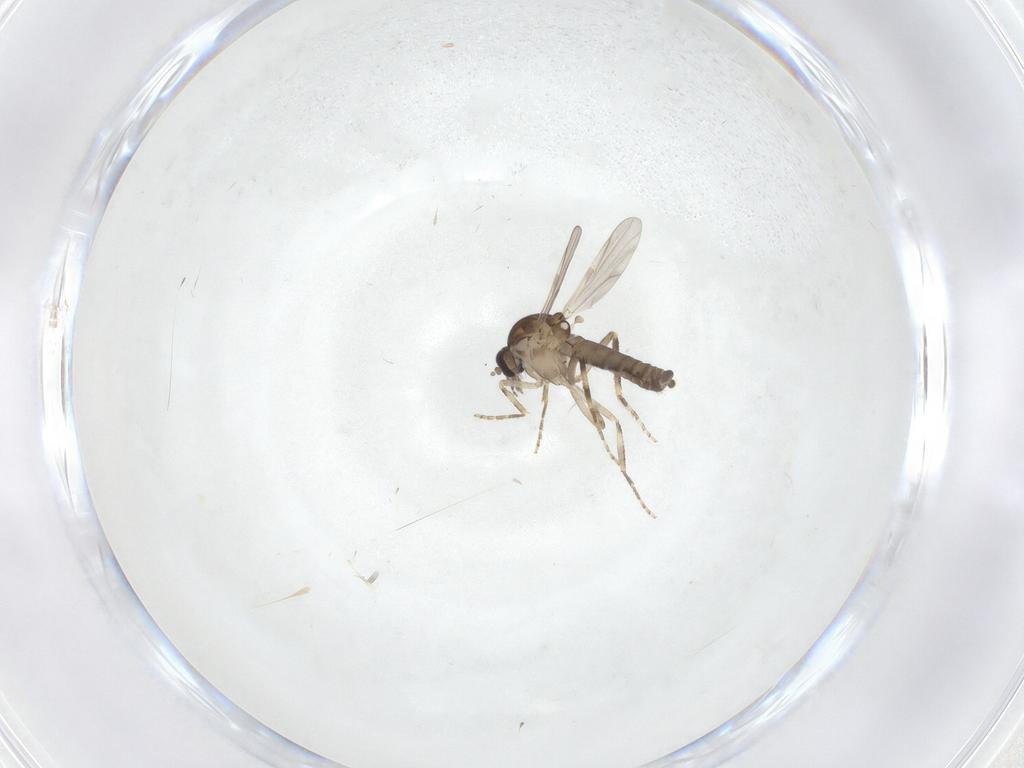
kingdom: Animalia
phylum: Arthropoda
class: Insecta
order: Diptera
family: Ceratopogonidae
